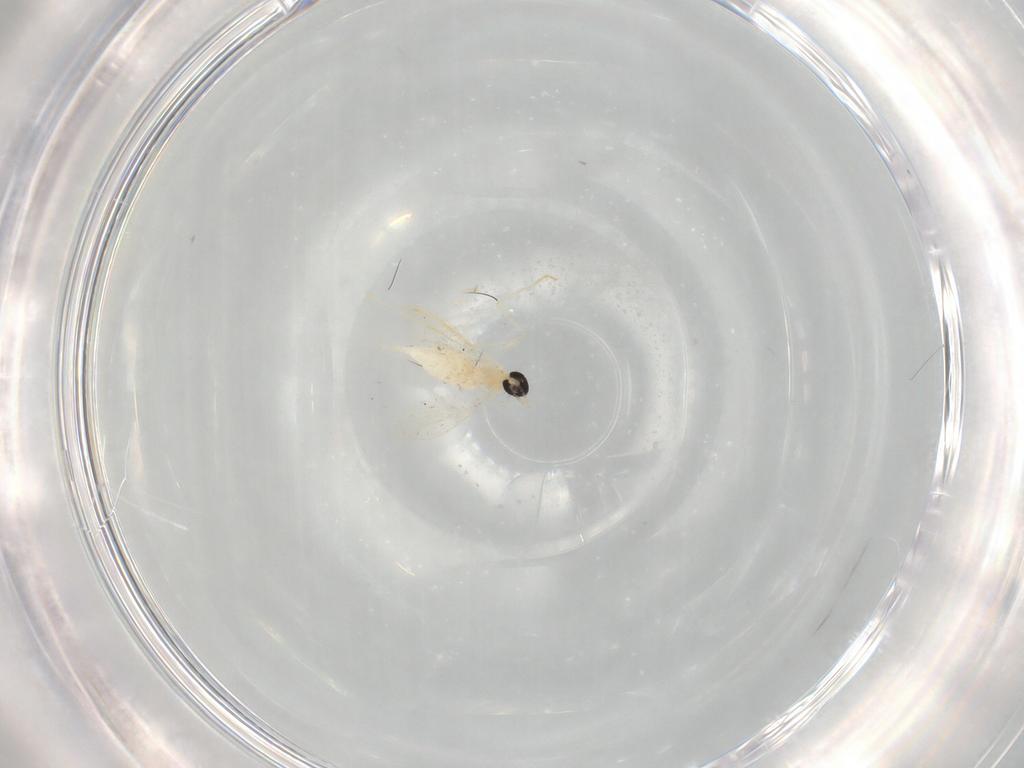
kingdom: Animalia
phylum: Arthropoda
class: Insecta
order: Diptera
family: Cecidomyiidae
